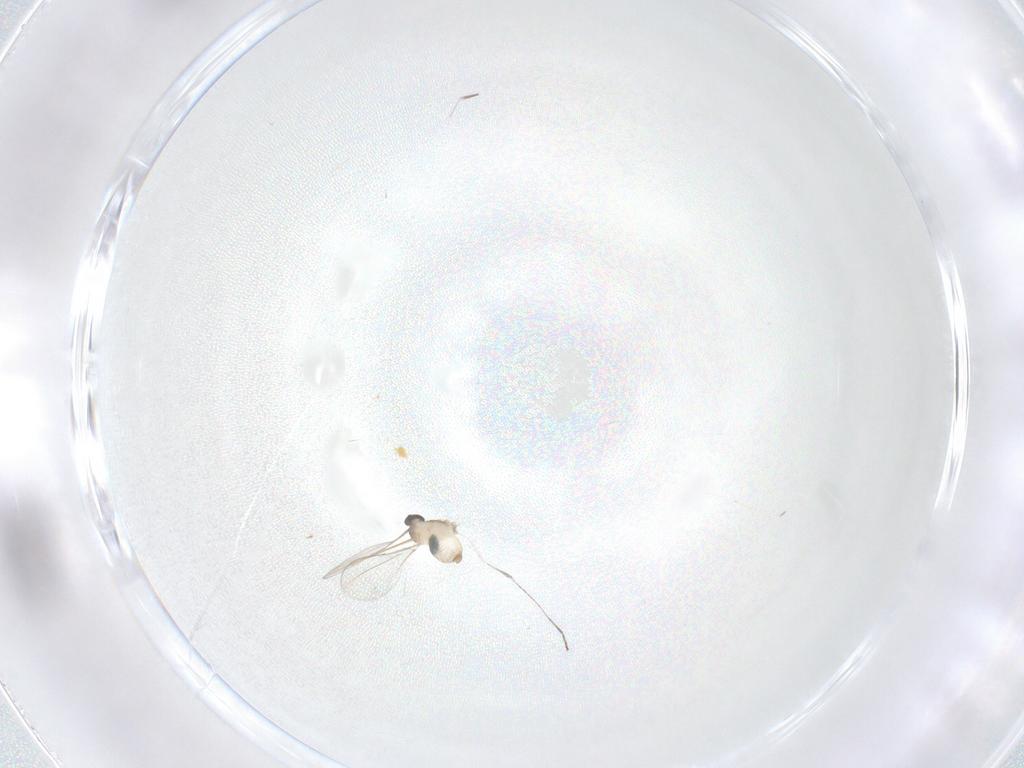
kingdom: Animalia
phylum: Arthropoda
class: Insecta
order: Diptera
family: Cecidomyiidae
